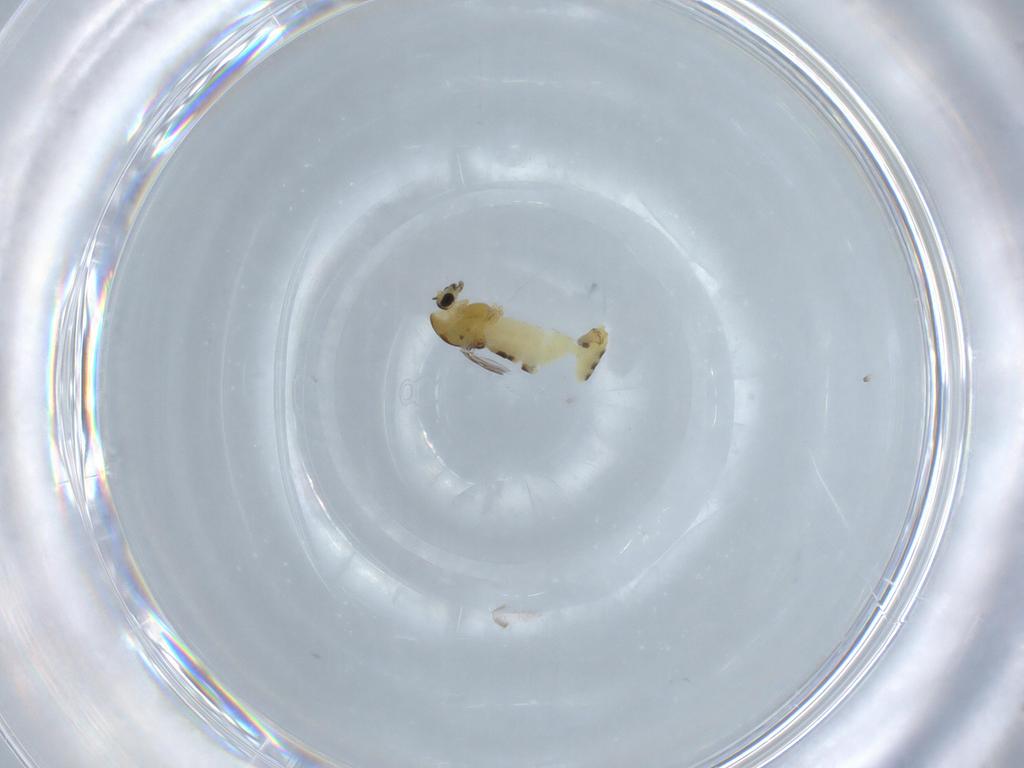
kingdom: Animalia
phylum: Arthropoda
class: Insecta
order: Diptera
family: Chironomidae
